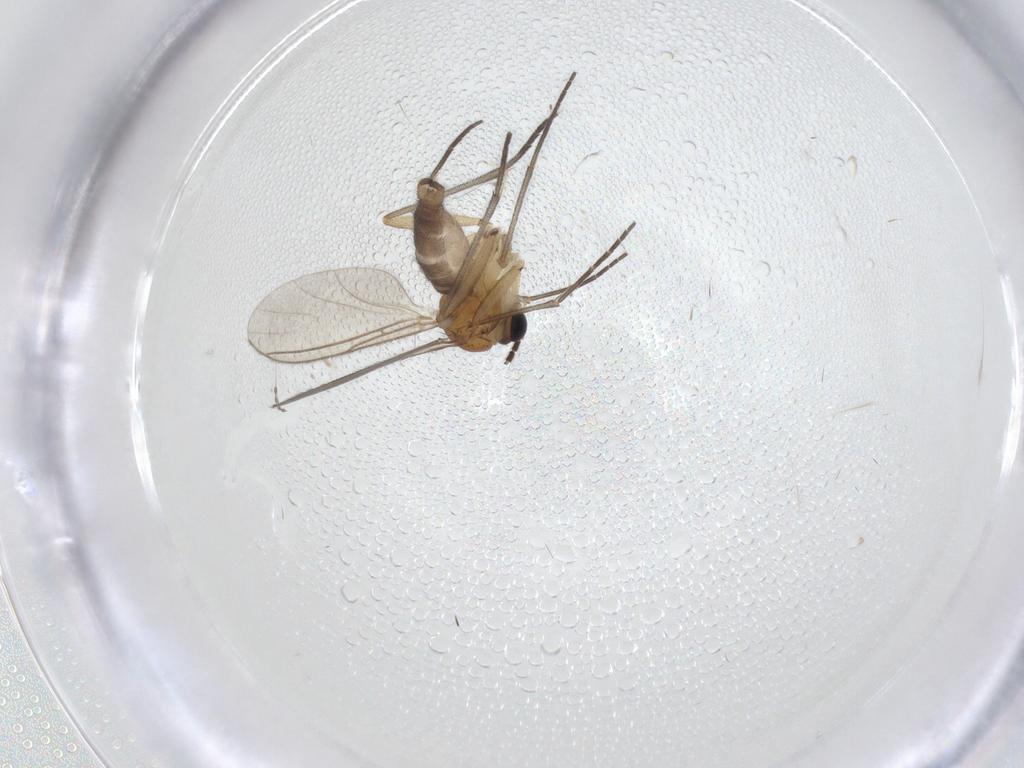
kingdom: Animalia
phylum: Arthropoda
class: Insecta
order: Diptera
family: Sciaridae
